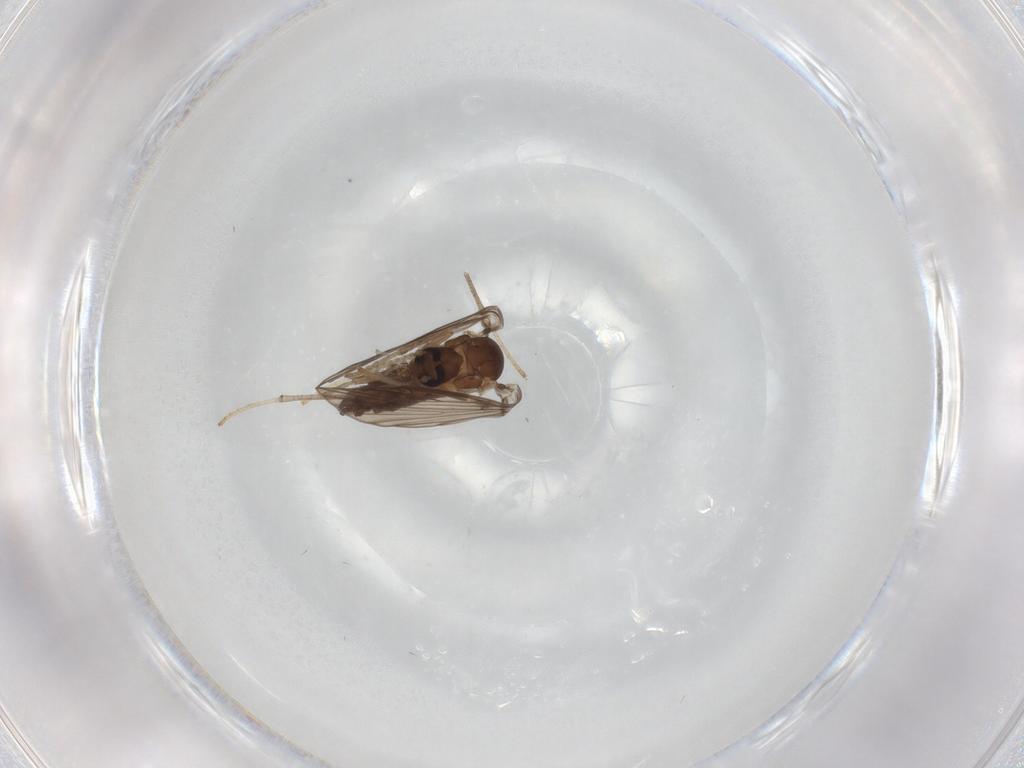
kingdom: Animalia
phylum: Arthropoda
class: Insecta
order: Diptera
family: Psychodidae
